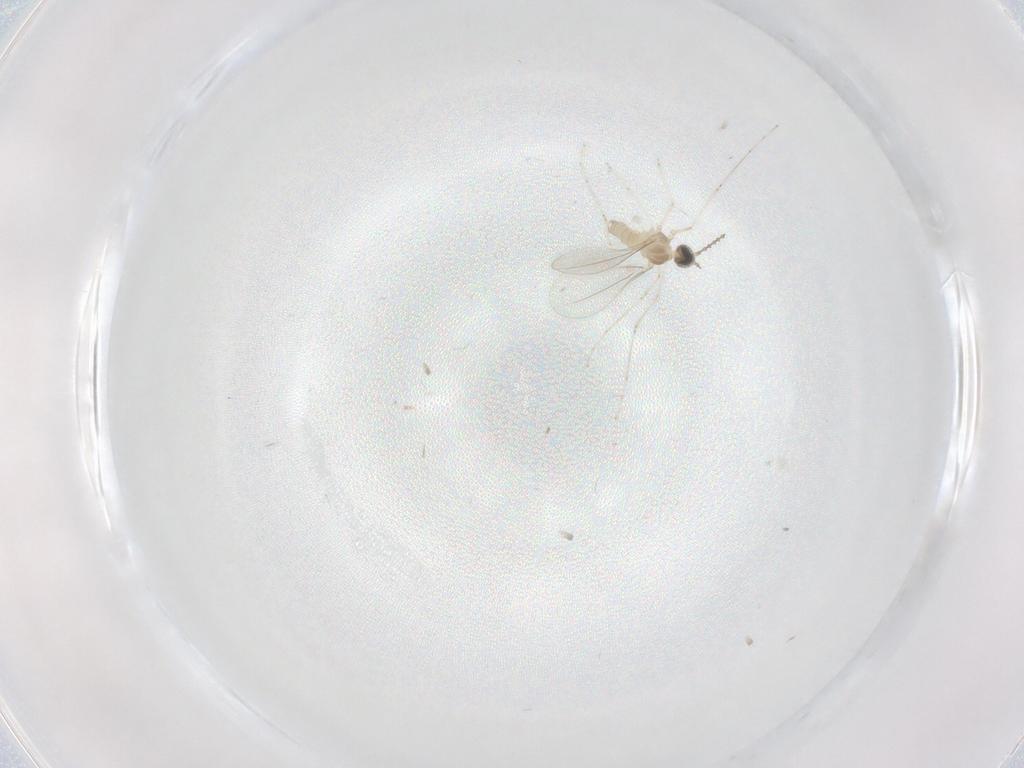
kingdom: Animalia
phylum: Arthropoda
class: Insecta
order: Diptera
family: Cecidomyiidae
